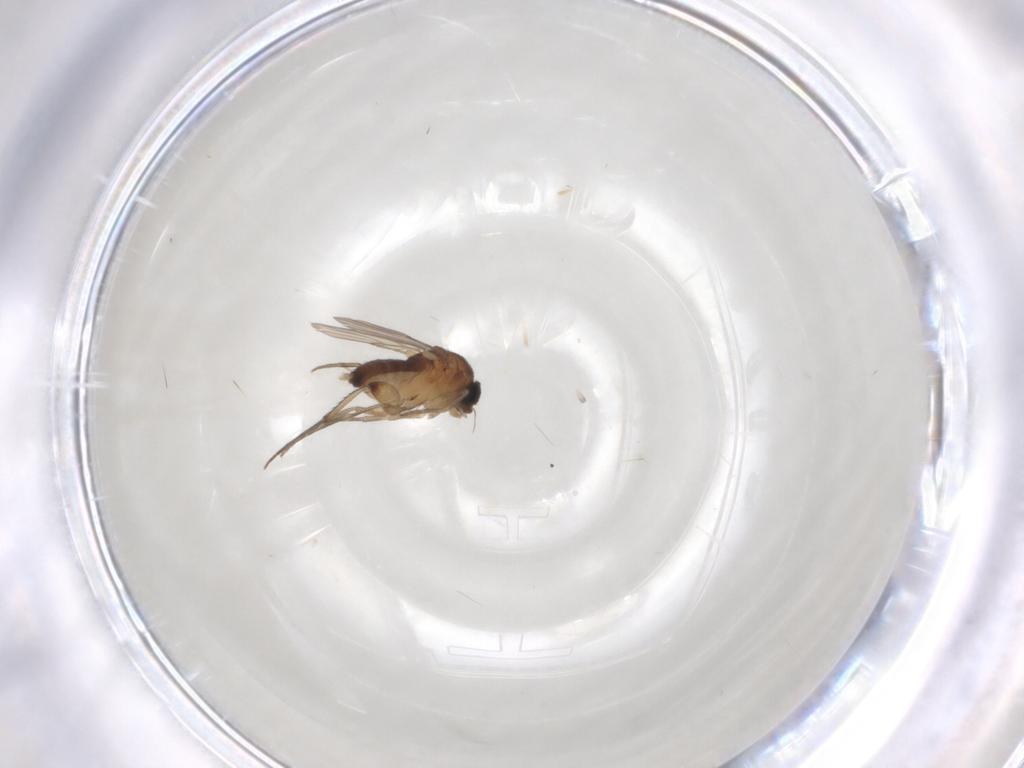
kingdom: Animalia
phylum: Arthropoda
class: Insecta
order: Diptera
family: Phoridae
